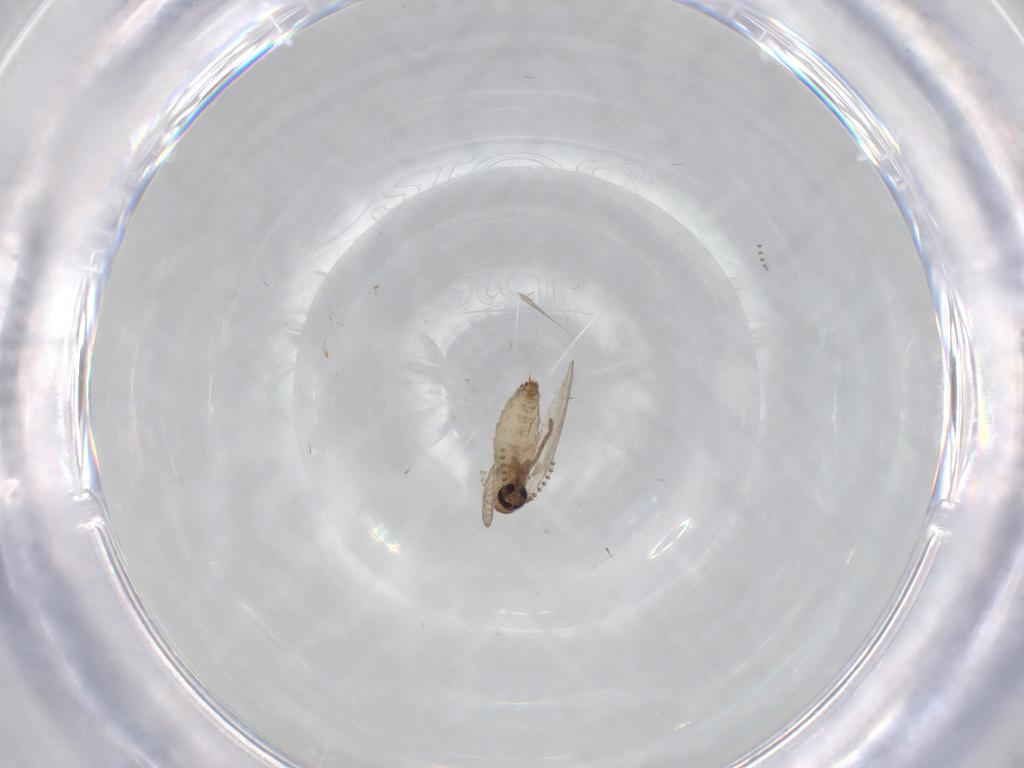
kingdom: Animalia
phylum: Arthropoda
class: Insecta
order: Diptera
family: Psychodidae
